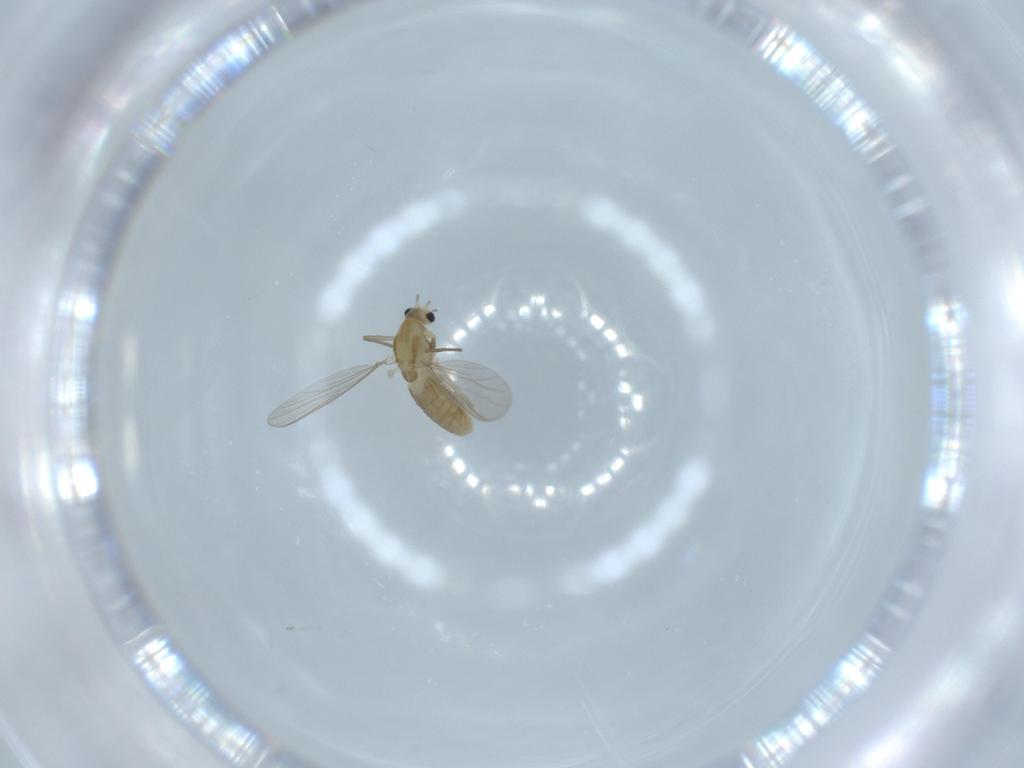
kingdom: Animalia
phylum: Arthropoda
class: Insecta
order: Diptera
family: Chironomidae
